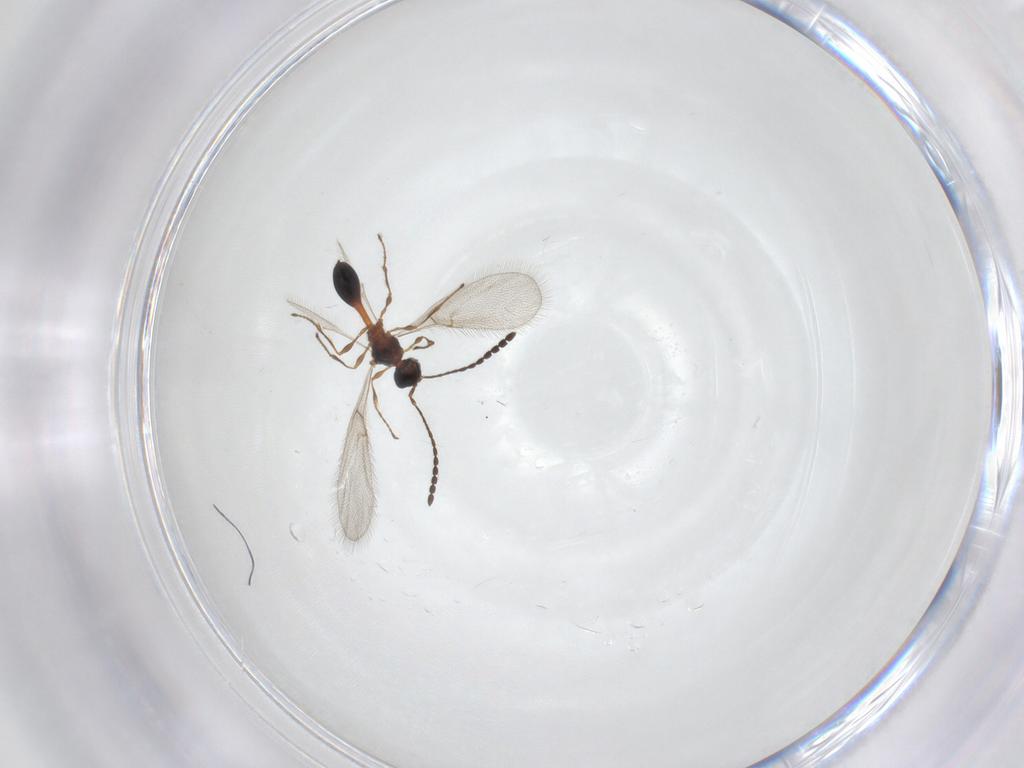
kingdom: Animalia
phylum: Arthropoda
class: Insecta
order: Hymenoptera
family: Diapriidae
